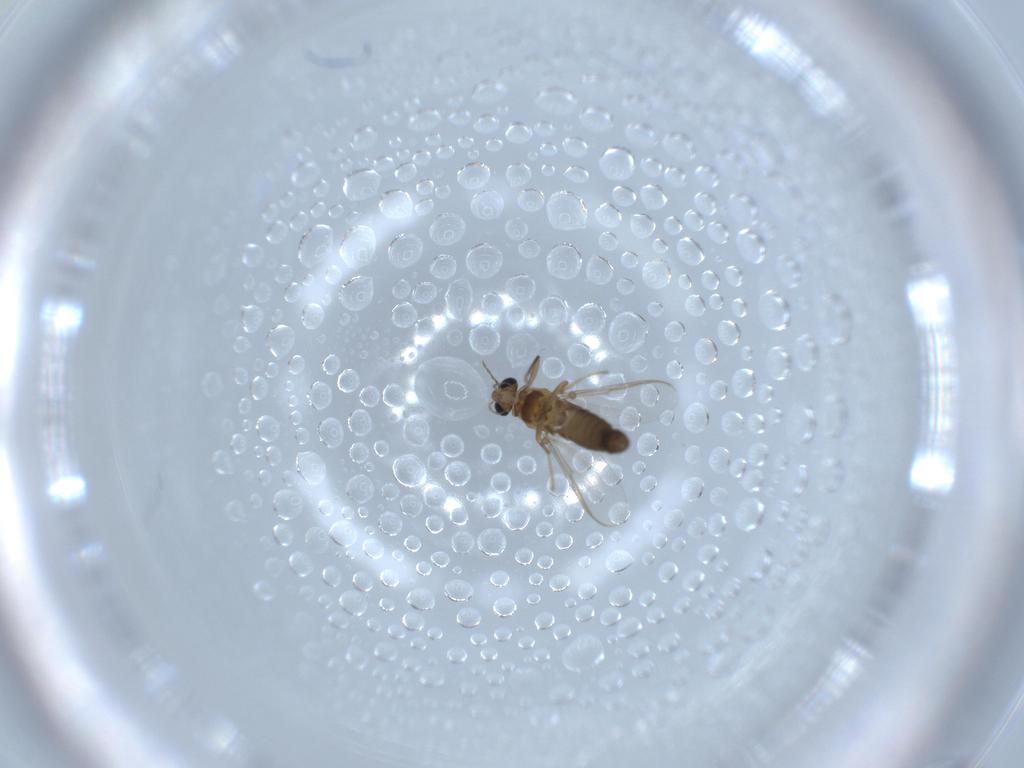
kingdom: Animalia
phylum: Arthropoda
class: Insecta
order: Diptera
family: Chironomidae
